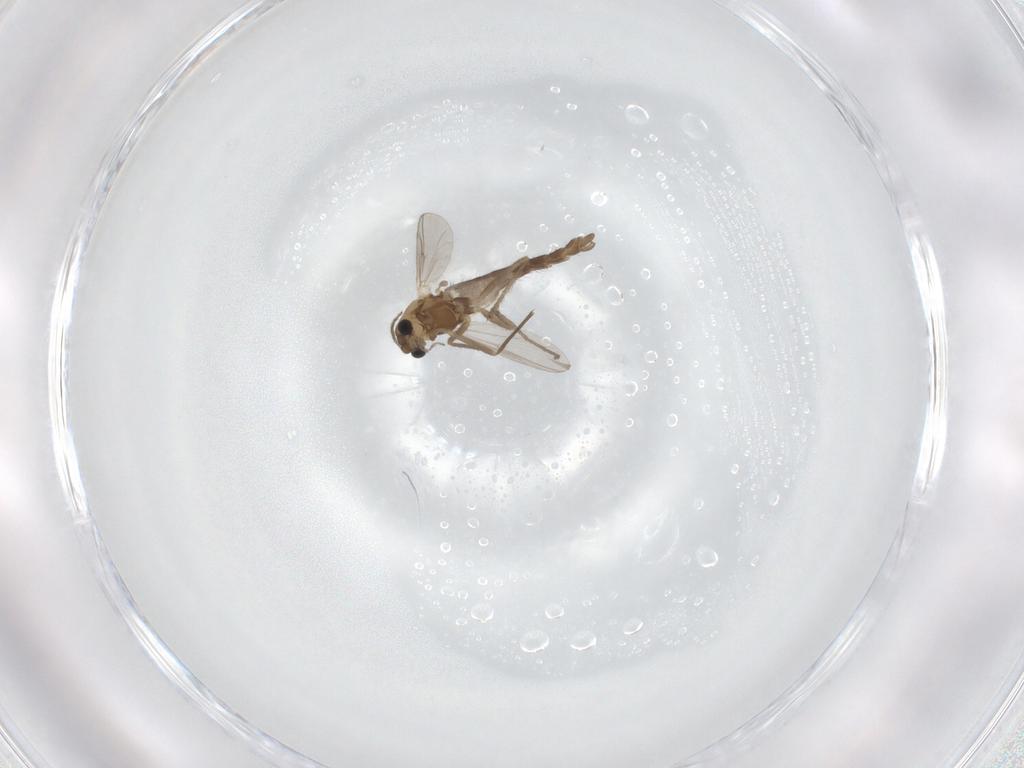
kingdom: Animalia
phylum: Arthropoda
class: Insecta
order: Diptera
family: Chironomidae
